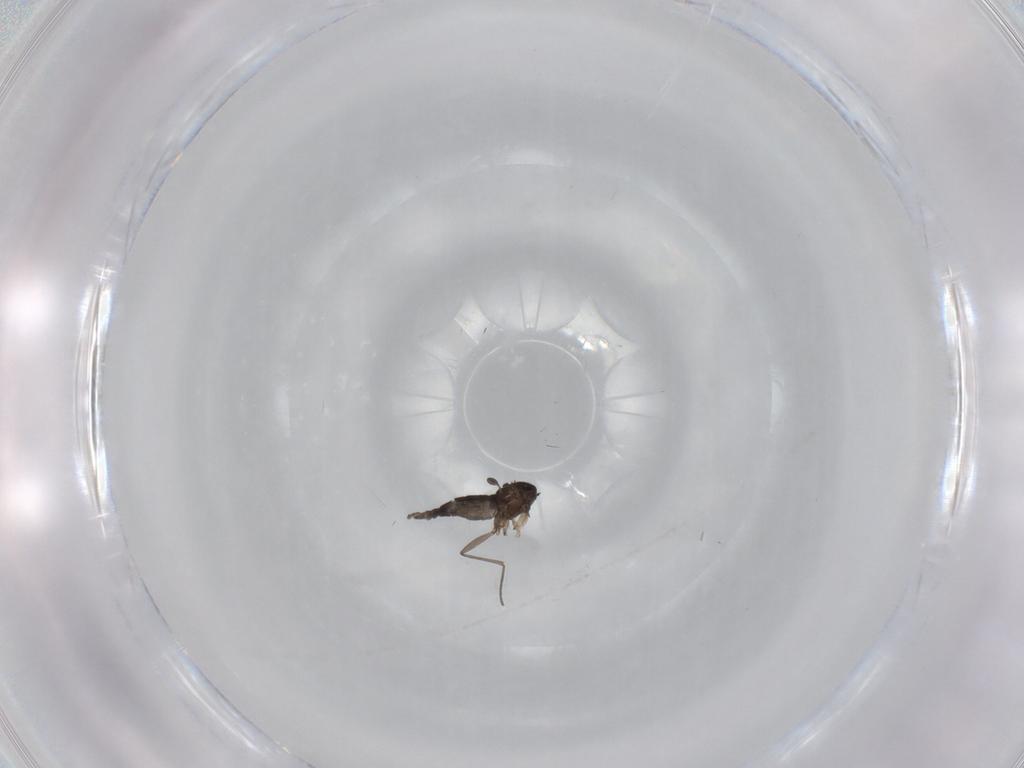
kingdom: Animalia
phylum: Arthropoda
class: Insecta
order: Diptera
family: Sciaridae
